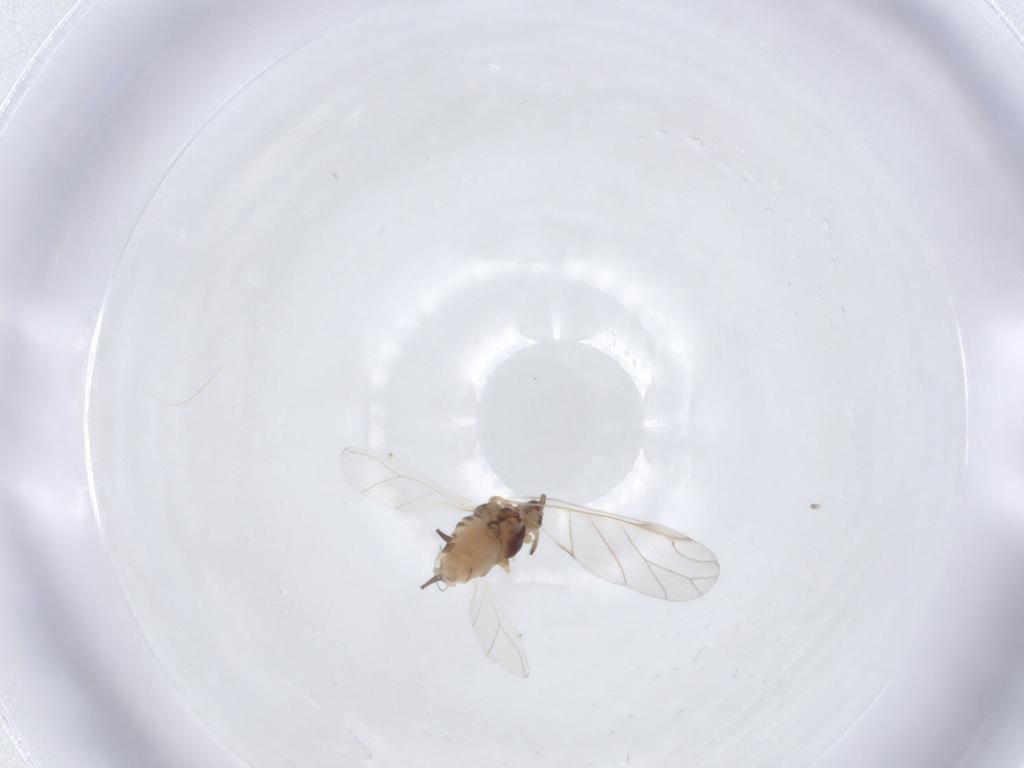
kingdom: Animalia
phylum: Arthropoda
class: Insecta
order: Hemiptera
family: Aphididae
